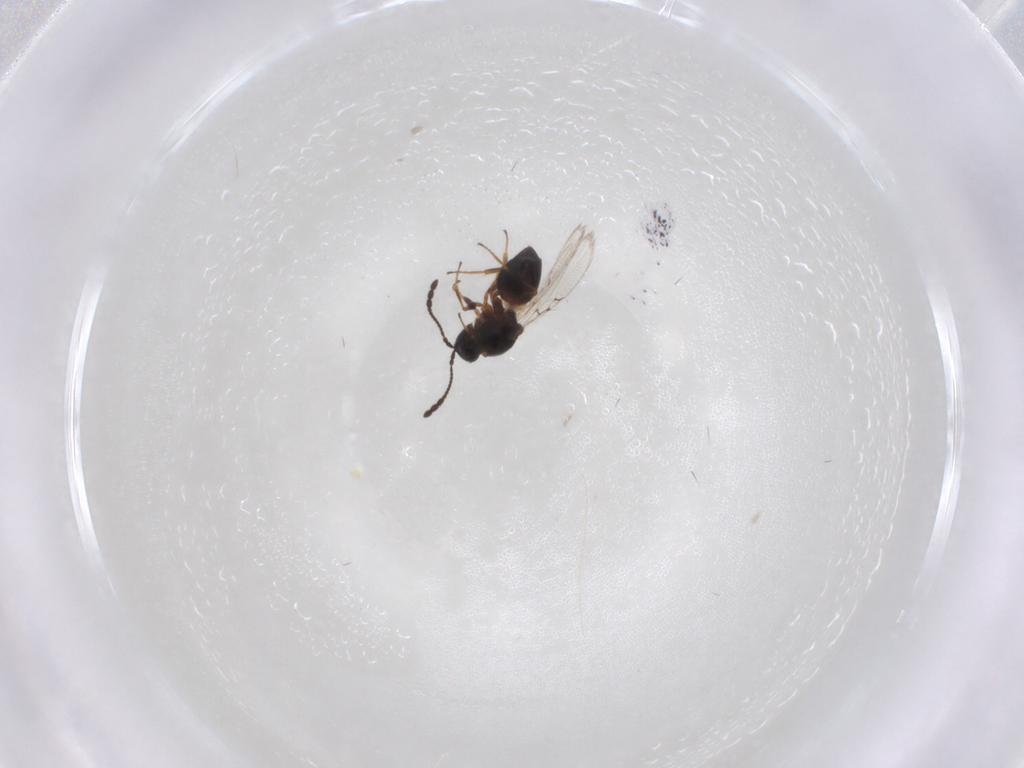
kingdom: Animalia
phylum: Arthropoda
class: Insecta
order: Hymenoptera
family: Figitidae
